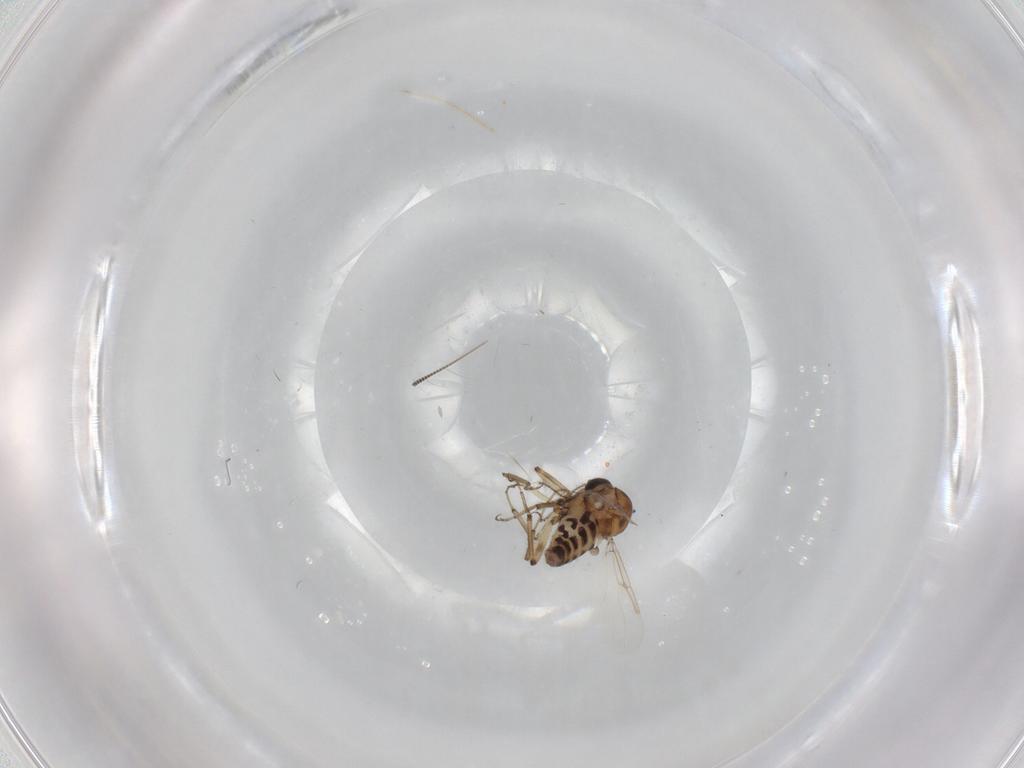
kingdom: Animalia
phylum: Arthropoda
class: Insecta
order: Diptera
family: Ceratopogonidae
